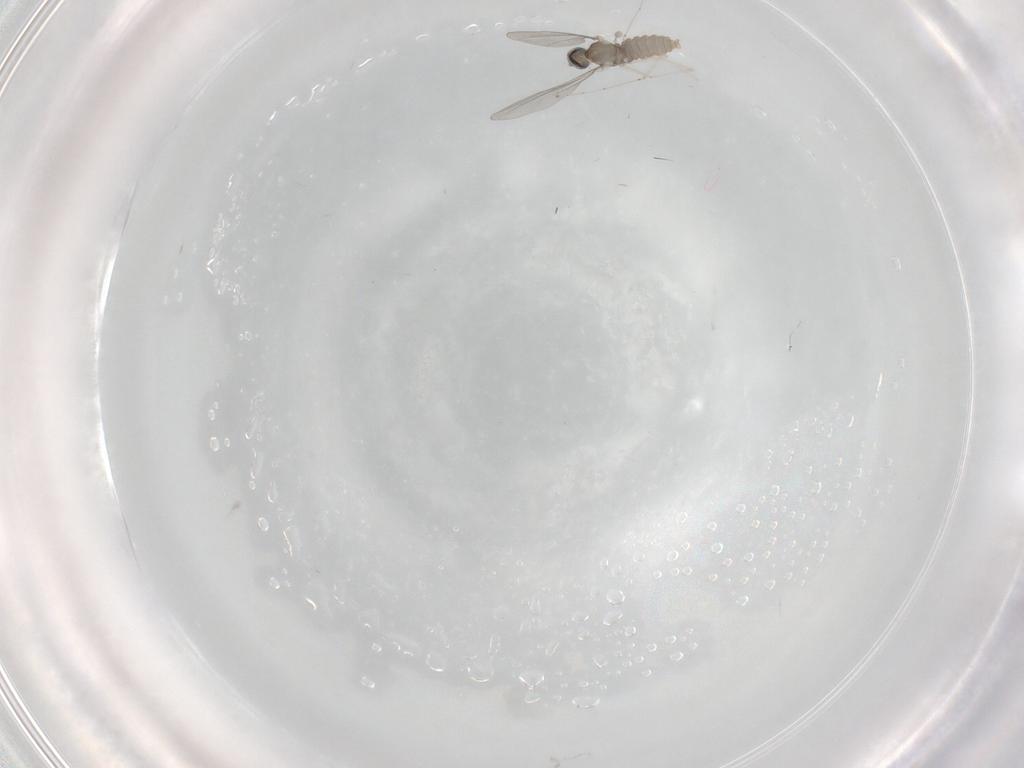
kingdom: Animalia
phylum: Arthropoda
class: Insecta
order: Diptera
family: Cecidomyiidae
